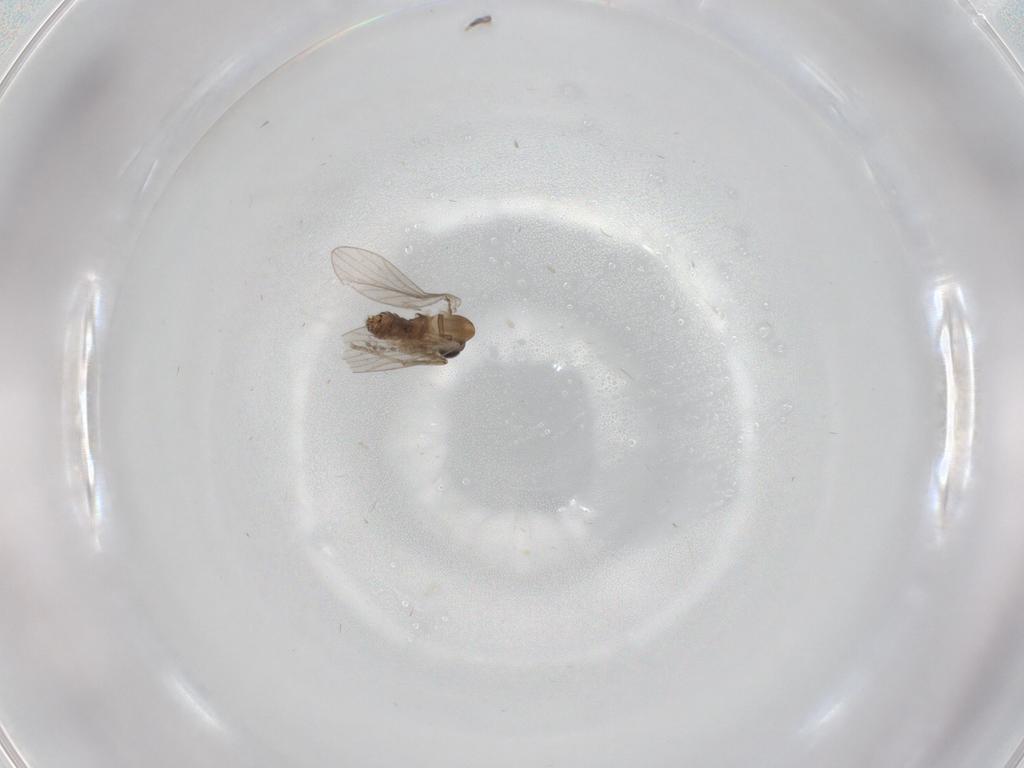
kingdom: Animalia
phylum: Arthropoda
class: Insecta
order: Diptera
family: Psychodidae
